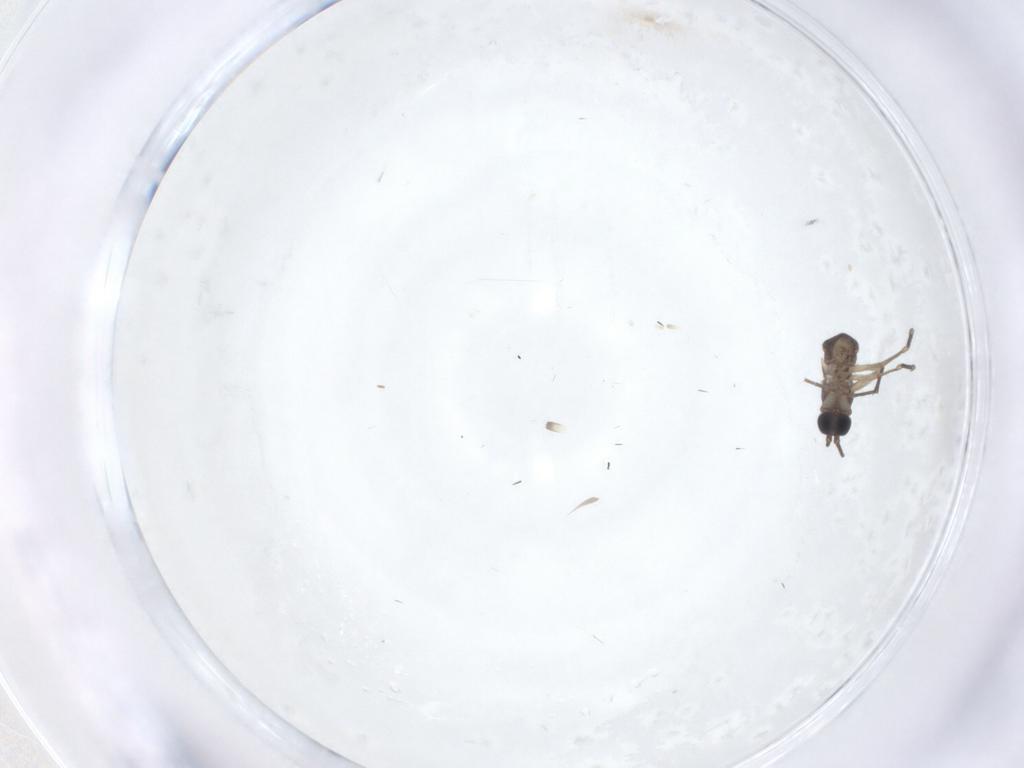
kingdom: Animalia
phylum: Arthropoda
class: Insecta
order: Diptera
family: Sciaridae
